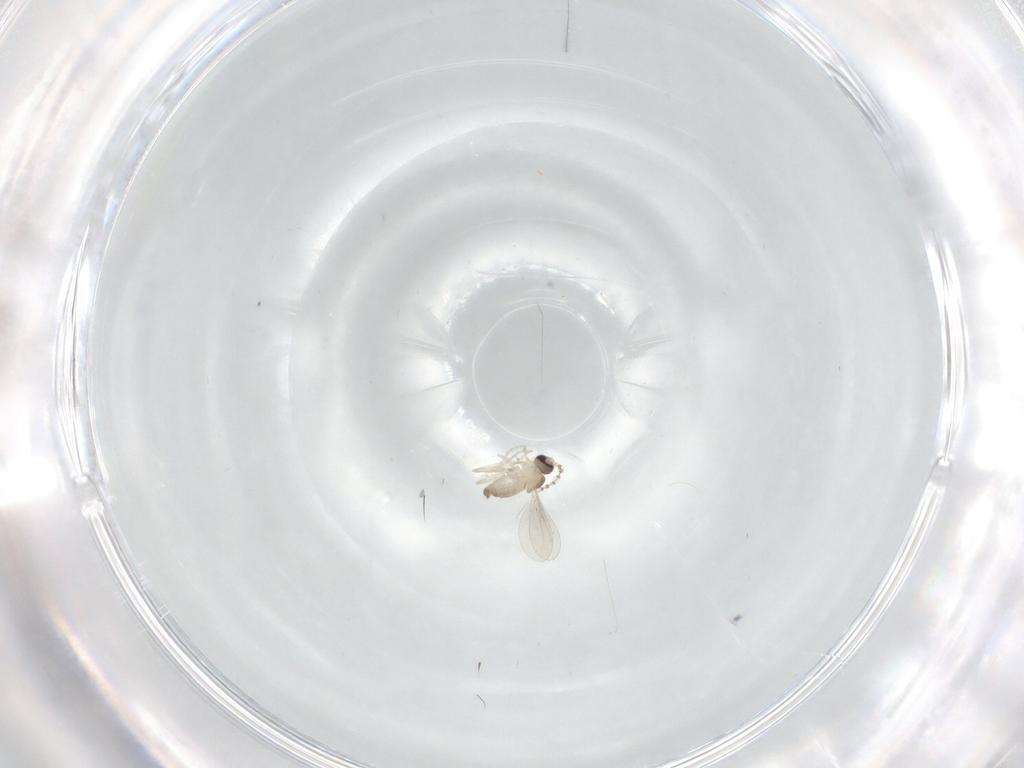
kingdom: Animalia
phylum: Arthropoda
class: Insecta
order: Diptera
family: Cecidomyiidae
